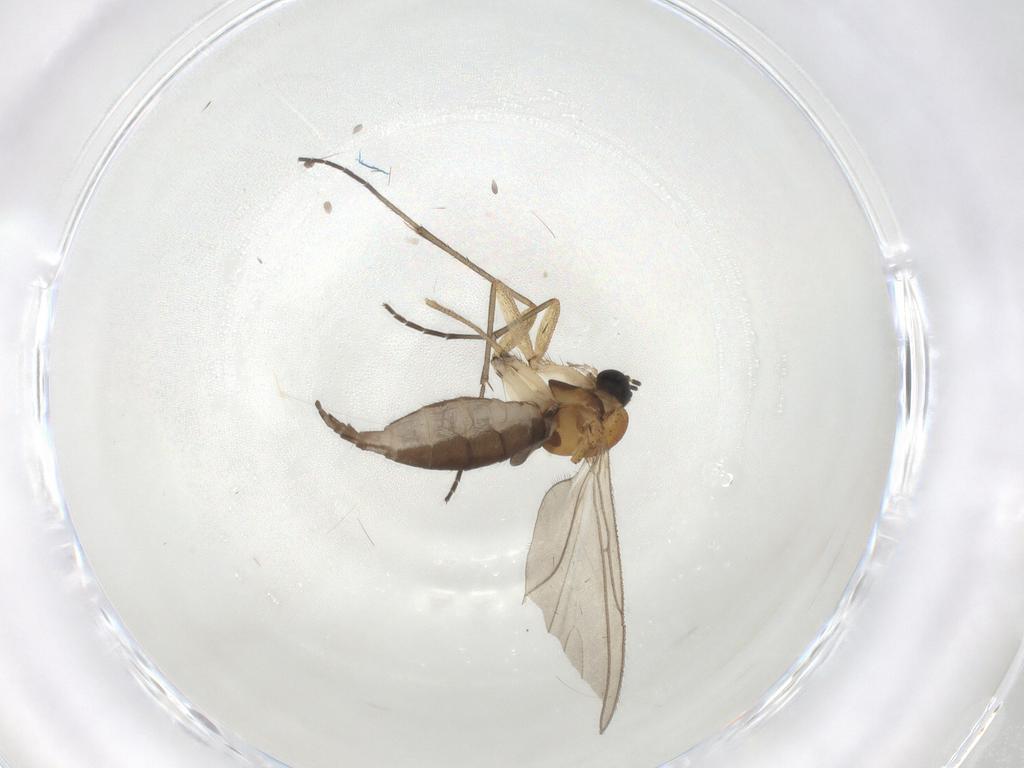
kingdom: Animalia
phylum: Arthropoda
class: Insecta
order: Diptera
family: Sciaridae
